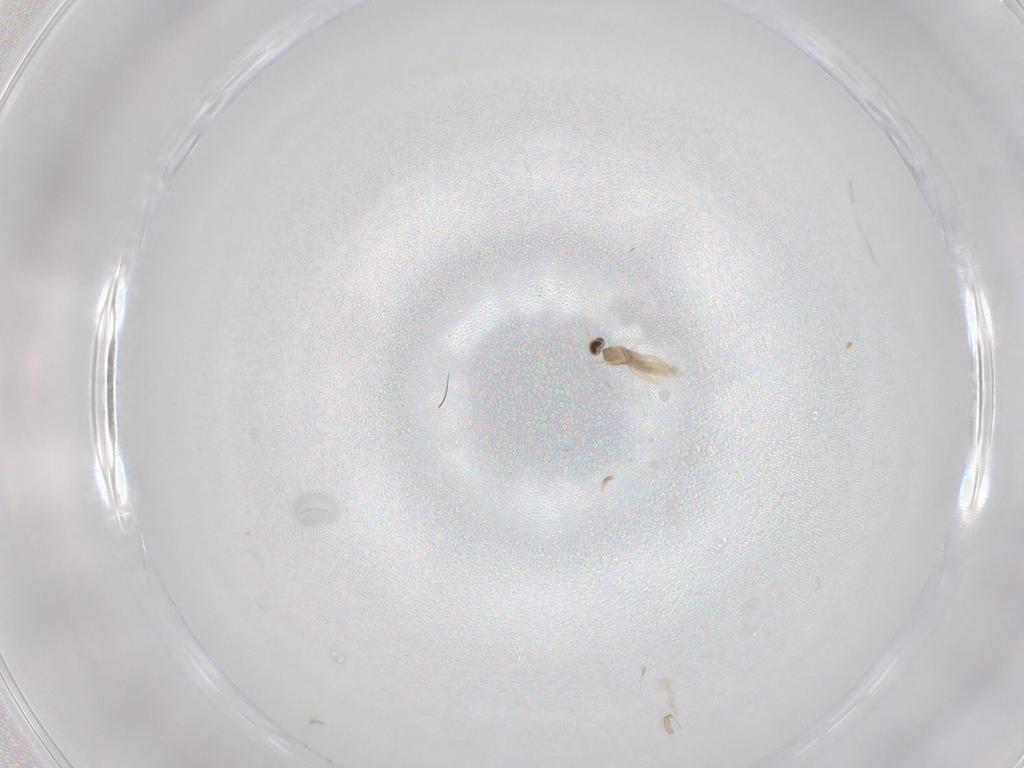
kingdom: Animalia
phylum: Arthropoda
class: Insecta
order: Diptera
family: Cecidomyiidae
